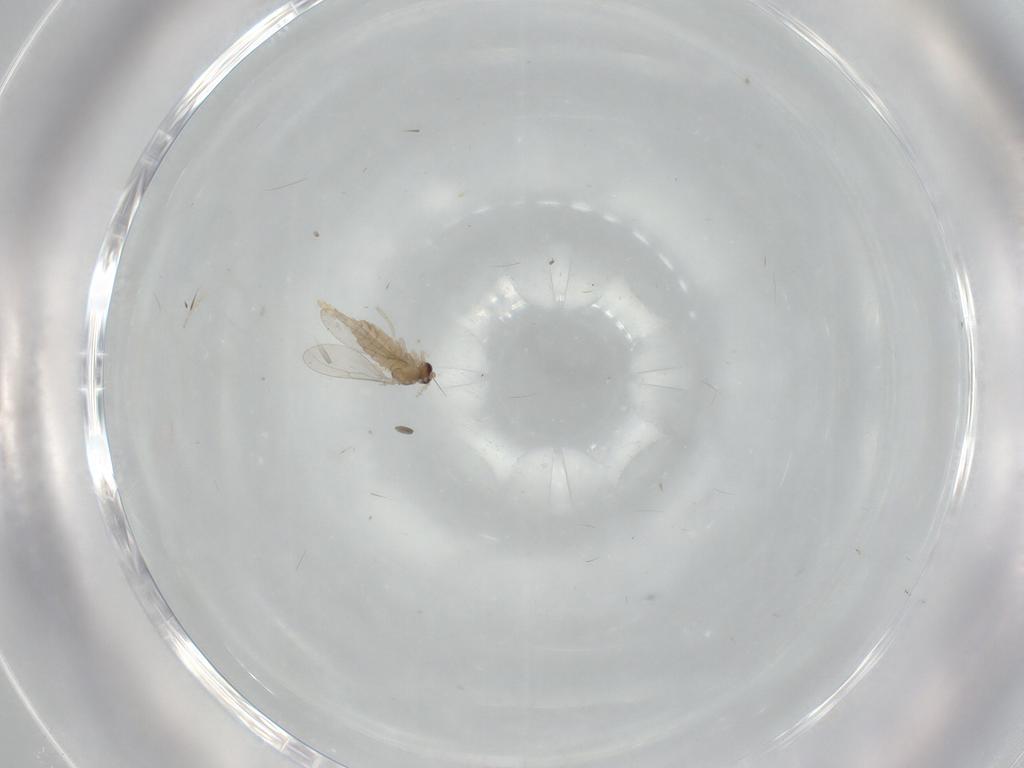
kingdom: Animalia
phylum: Arthropoda
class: Insecta
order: Diptera
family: Cecidomyiidae
